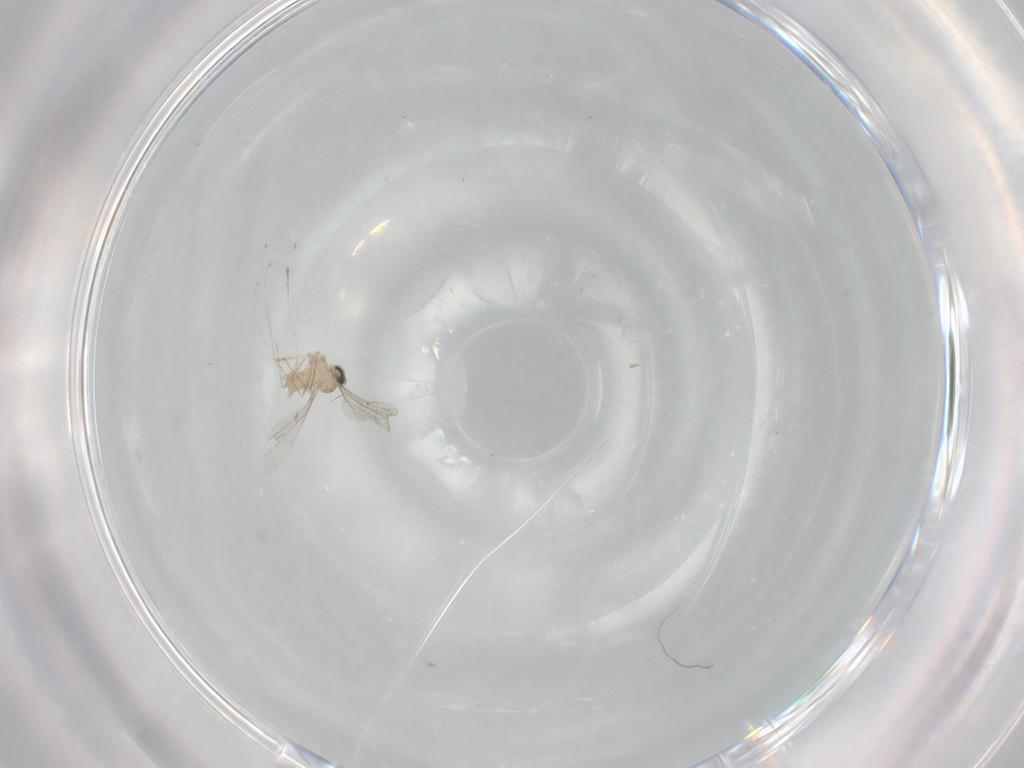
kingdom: Animalia
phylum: Arthropoda
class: Insecta
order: Diptera
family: Cecidomyiidae
